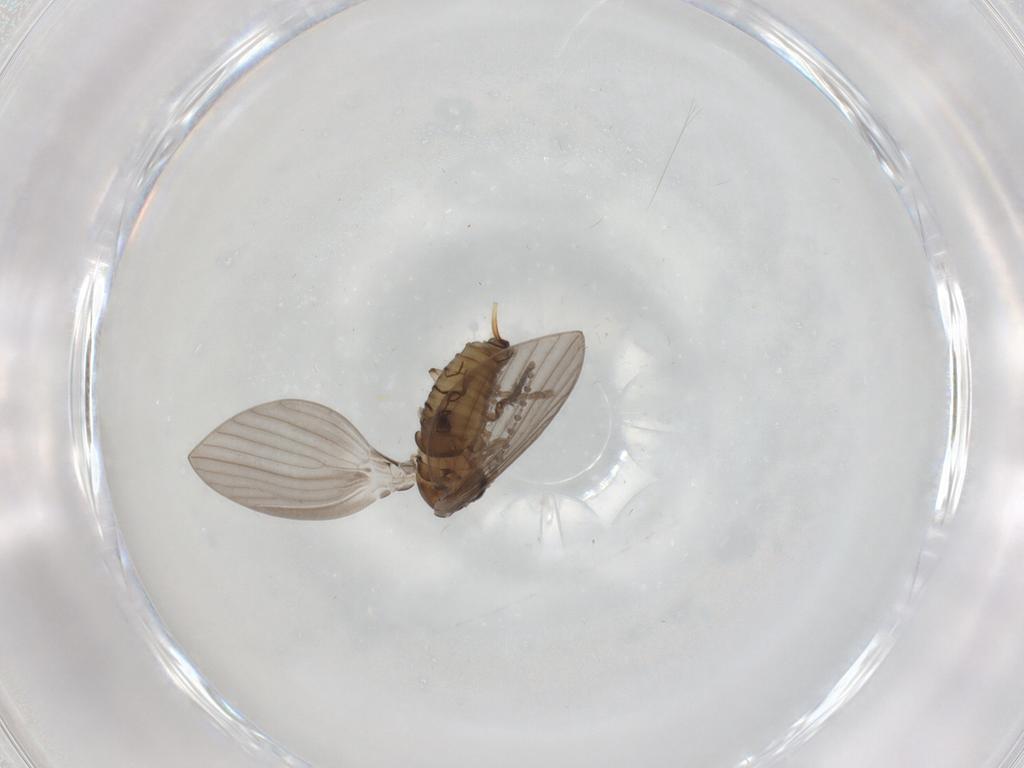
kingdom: Animalia
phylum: Arthropoda
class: Insecta
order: Diptera
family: Psychodidae
